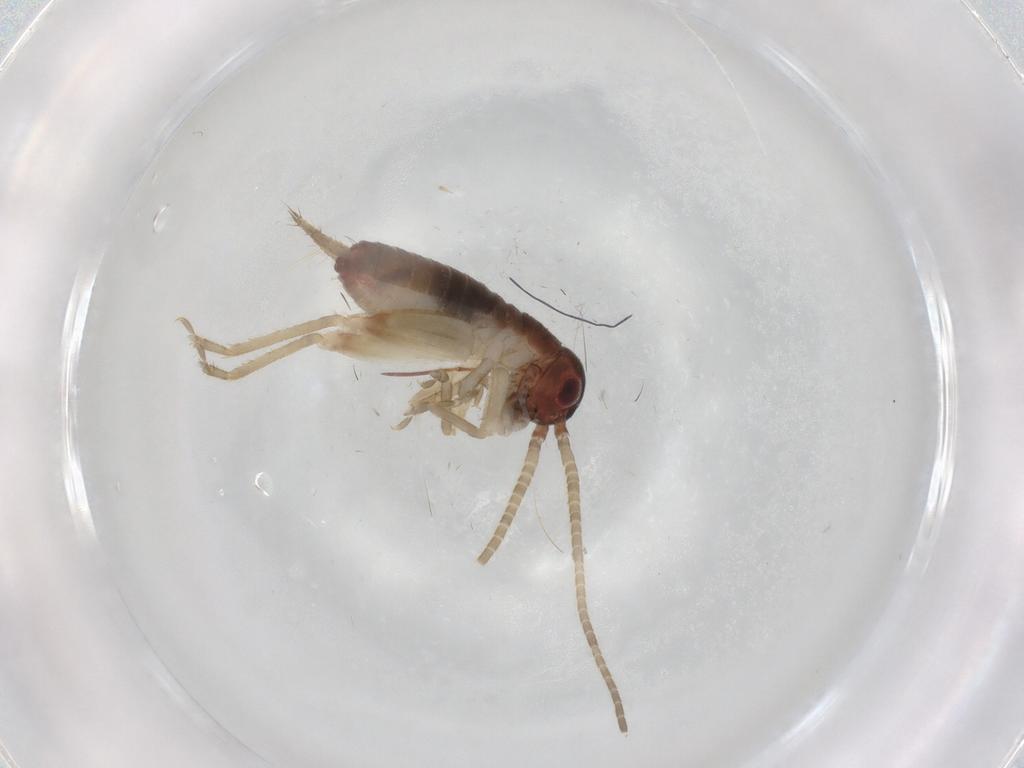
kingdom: Animalia
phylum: Arthropoda
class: Insecta
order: Orthoptera
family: Gryllidae
